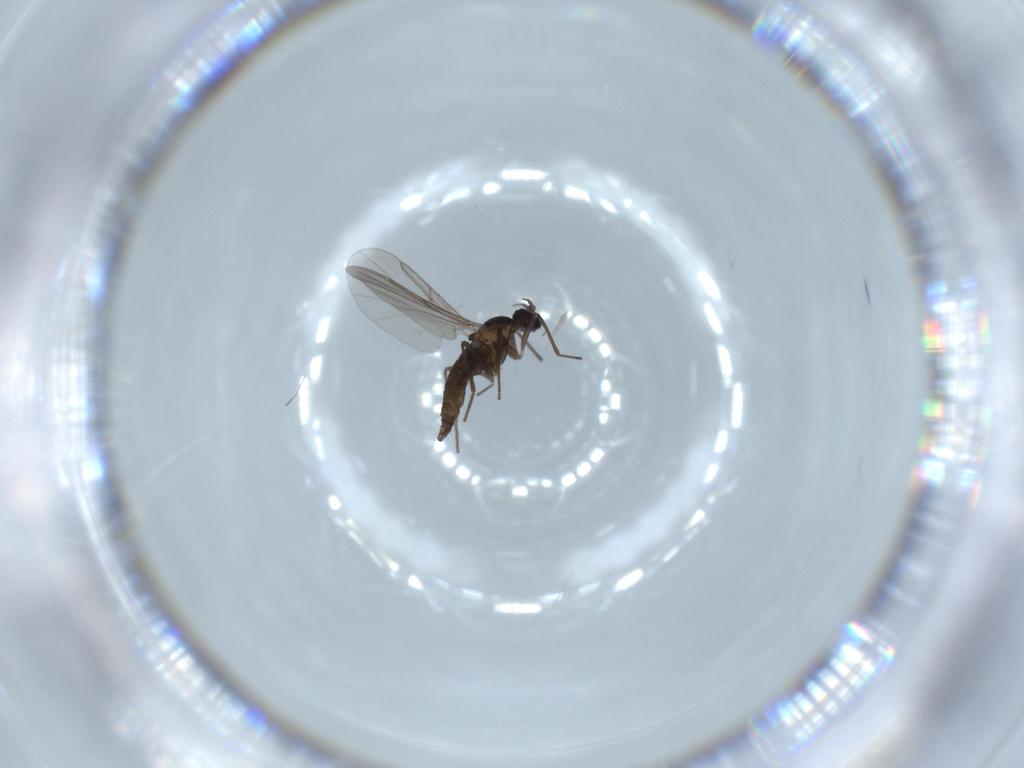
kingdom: Animalia
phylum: Arthropoda
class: Insecta
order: Diptera
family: Cecidomyiidae
